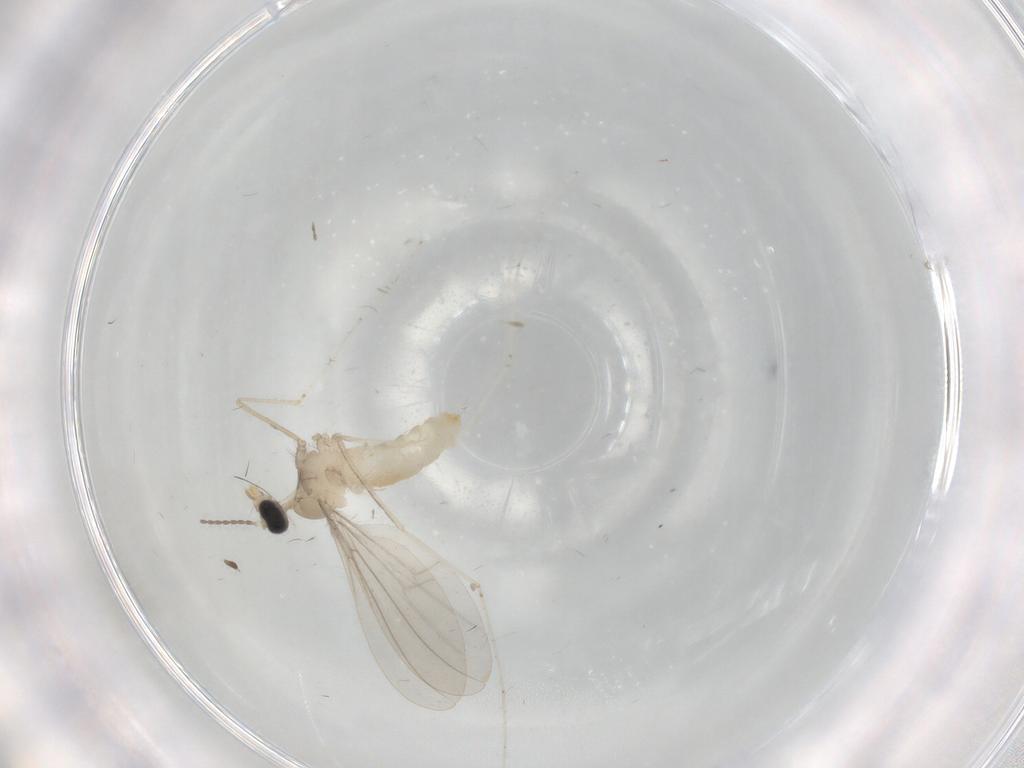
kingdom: Animalia
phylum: Arthropoda
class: Insecta
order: Diptera
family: Cecidomyiidae
